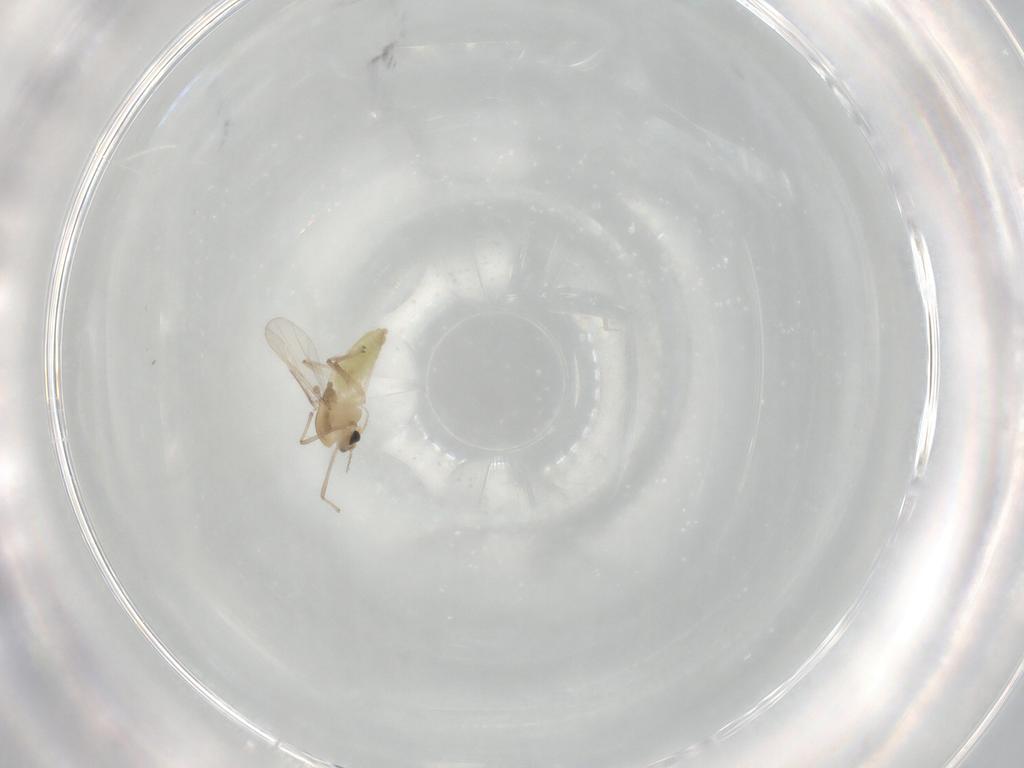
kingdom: Animalia
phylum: Arthropoda
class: Insecta
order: Diptera
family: Chironomidae
